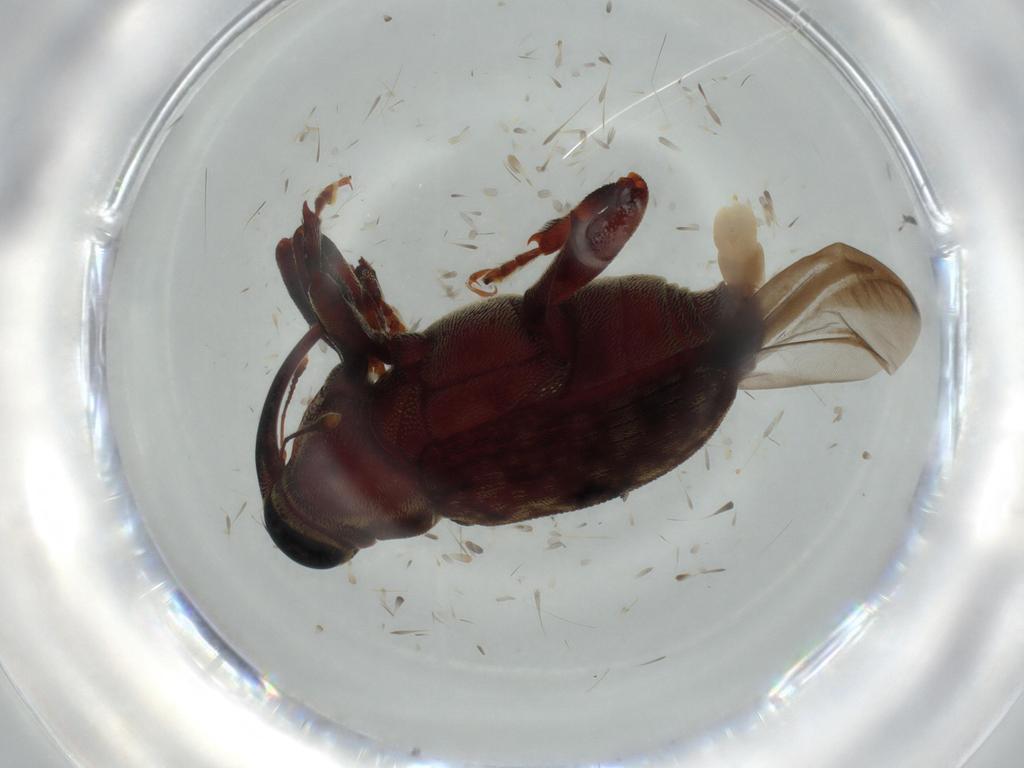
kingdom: Animalia
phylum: Arthropoda
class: Insecta
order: Coleoptera
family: Curculionidae
